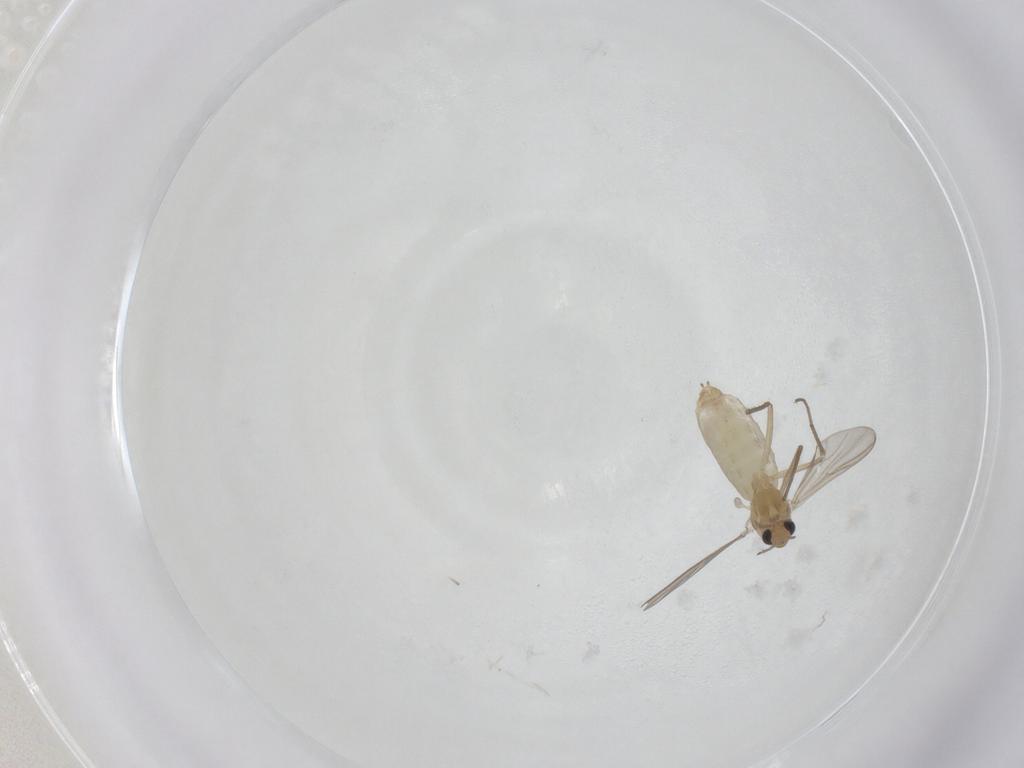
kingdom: Animalia
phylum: Arthropoda
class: Insecta
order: Diptera
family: Chironomidae
